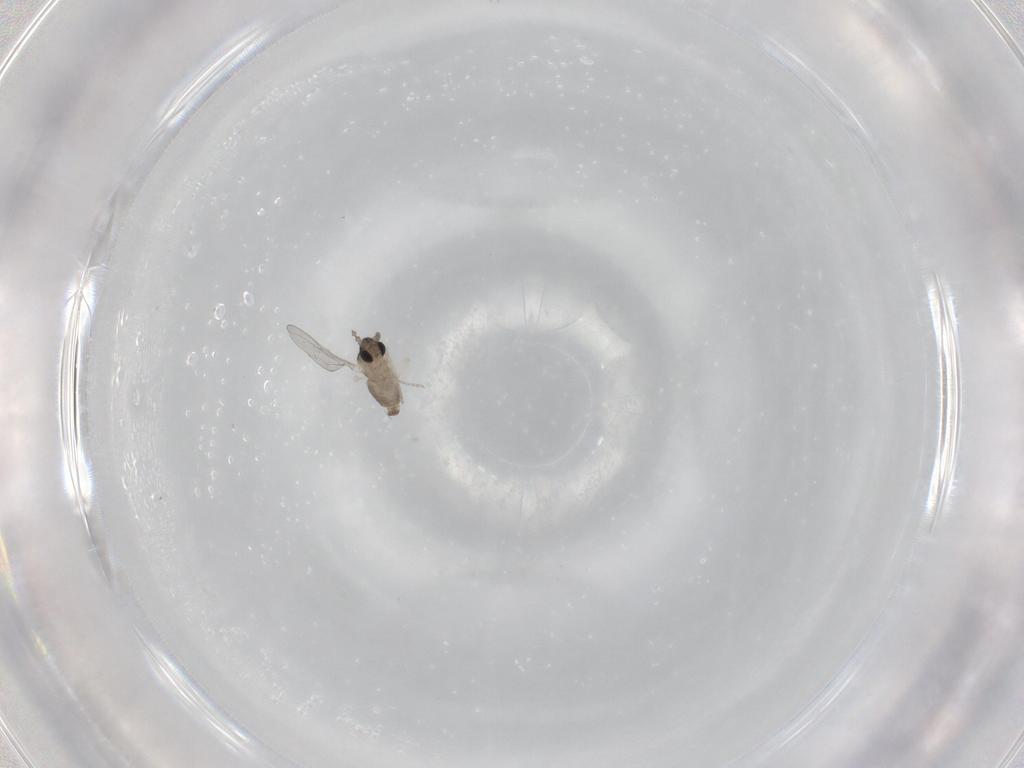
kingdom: Animalia
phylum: Arthropoda
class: Insecta
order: Diptera
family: Cecidomyiidae
